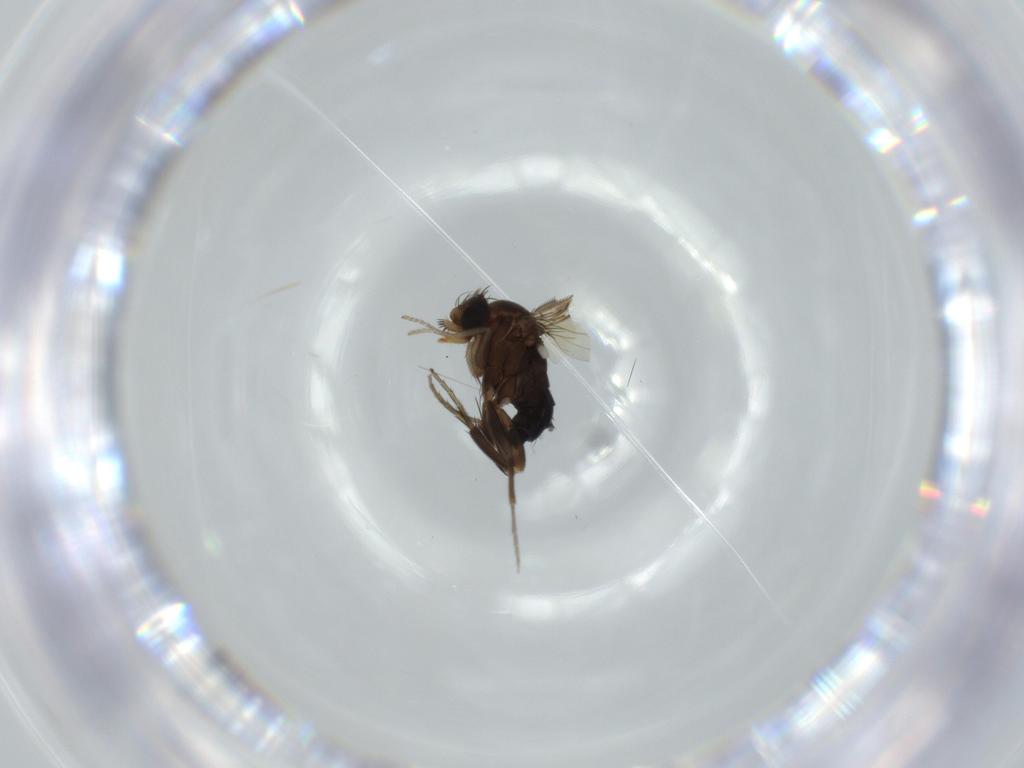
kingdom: Animalia
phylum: Arthropoda
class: Insecta
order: Diptera
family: Phoridae
